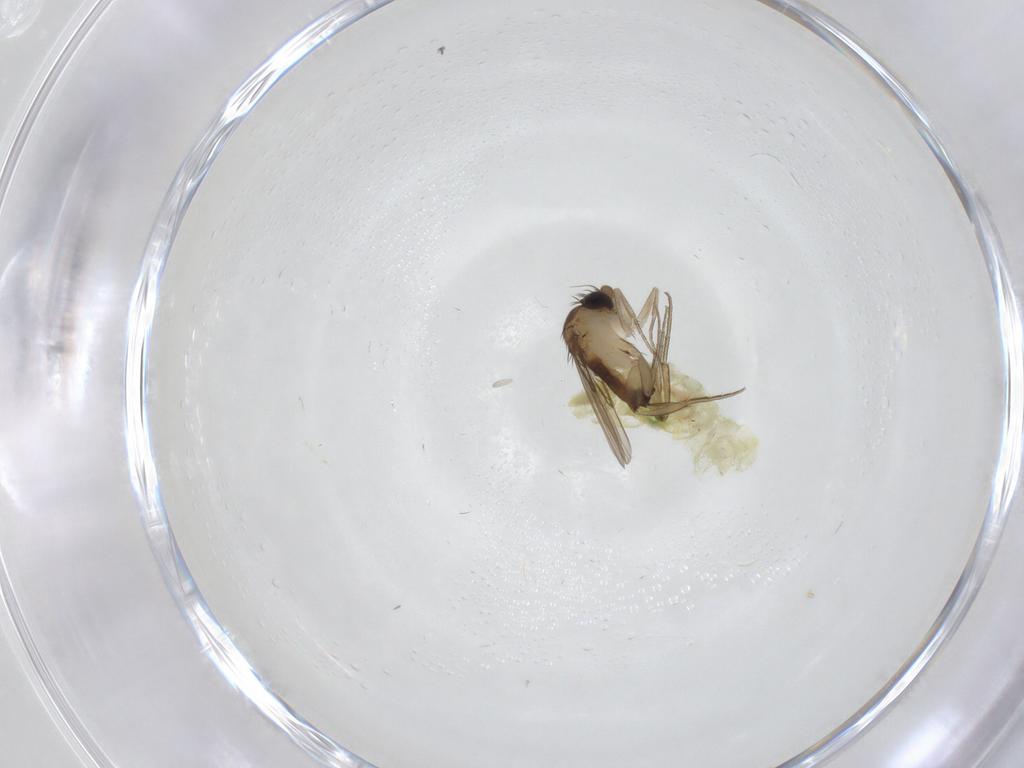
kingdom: Animalia
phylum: Arthropoda
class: Insecta
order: Diptera
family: Phoridae
